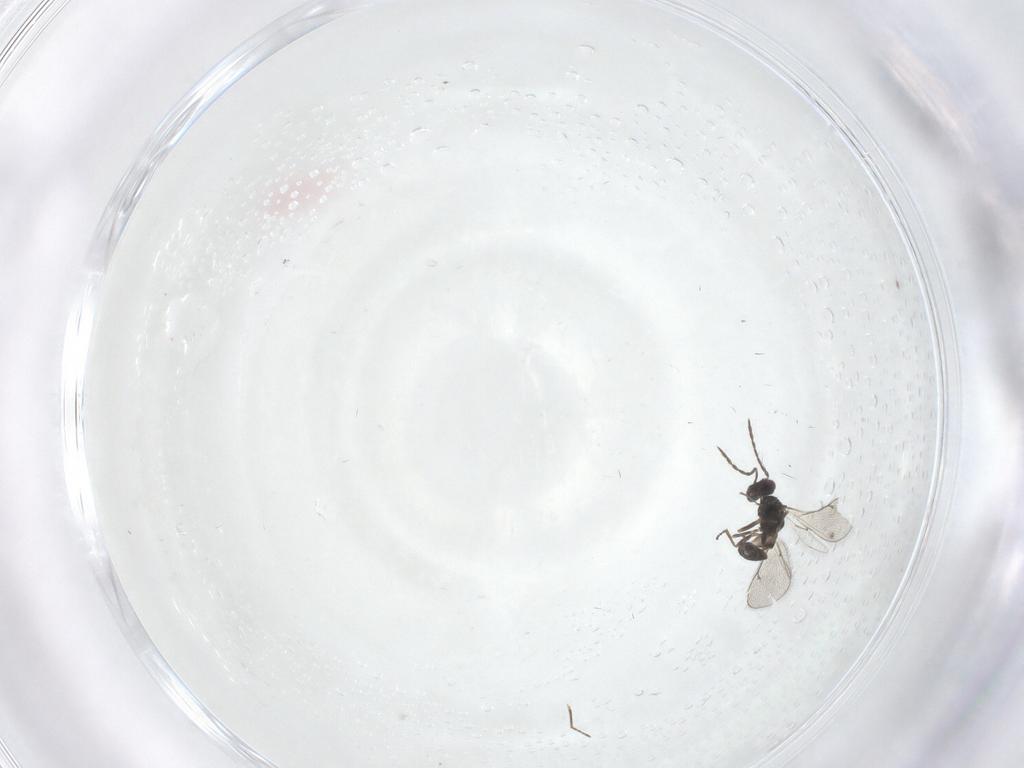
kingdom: Animalia
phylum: Arthropoda
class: Insecta
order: Hymenoptera
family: Eulophidae
